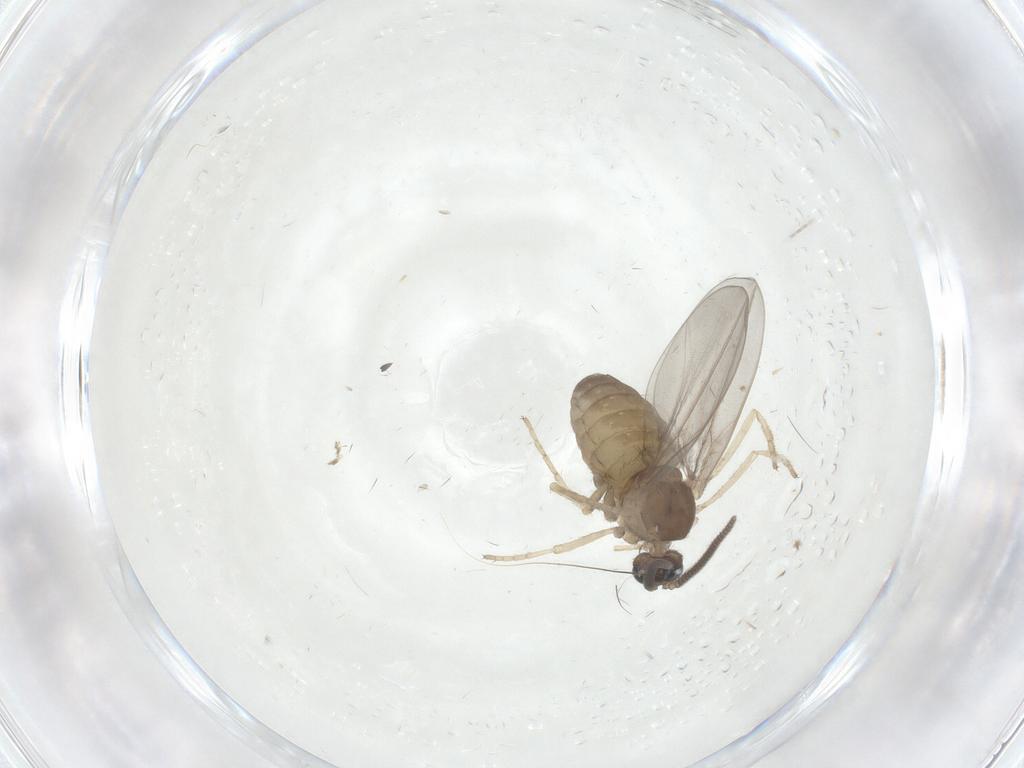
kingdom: Animalia
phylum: Arthropoda
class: Insecta
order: Diptera
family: Cecidomyiidae
